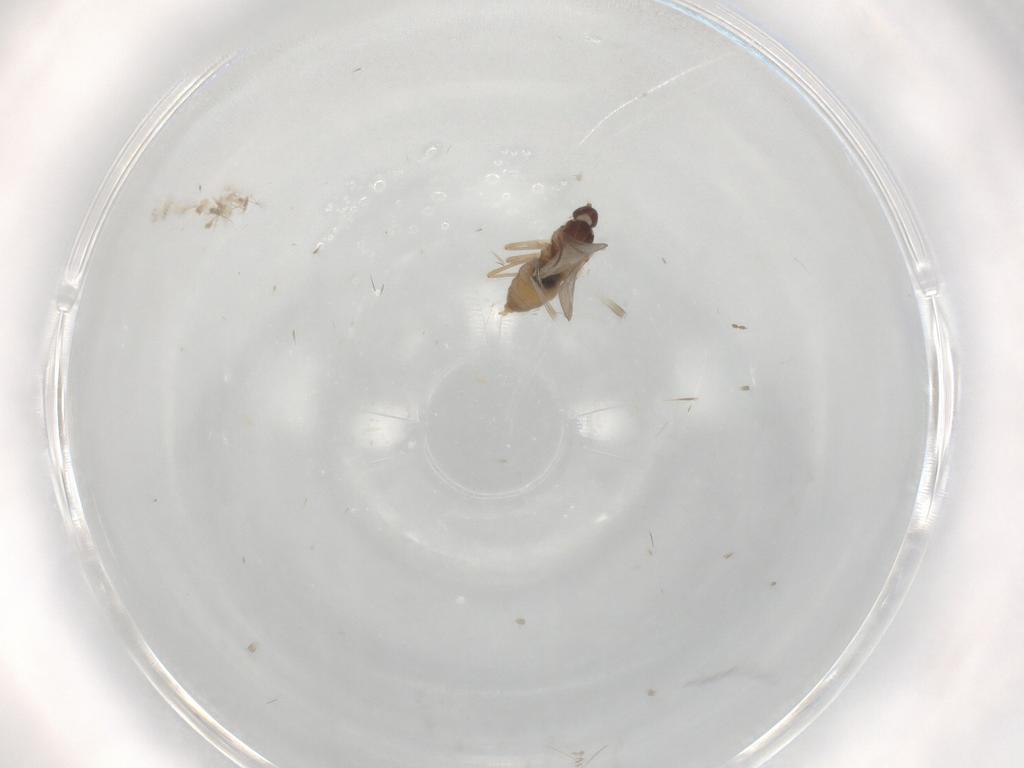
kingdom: Animalia
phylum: Arthropoda
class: Insecta
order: Diptera
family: Cecidomyiidae
